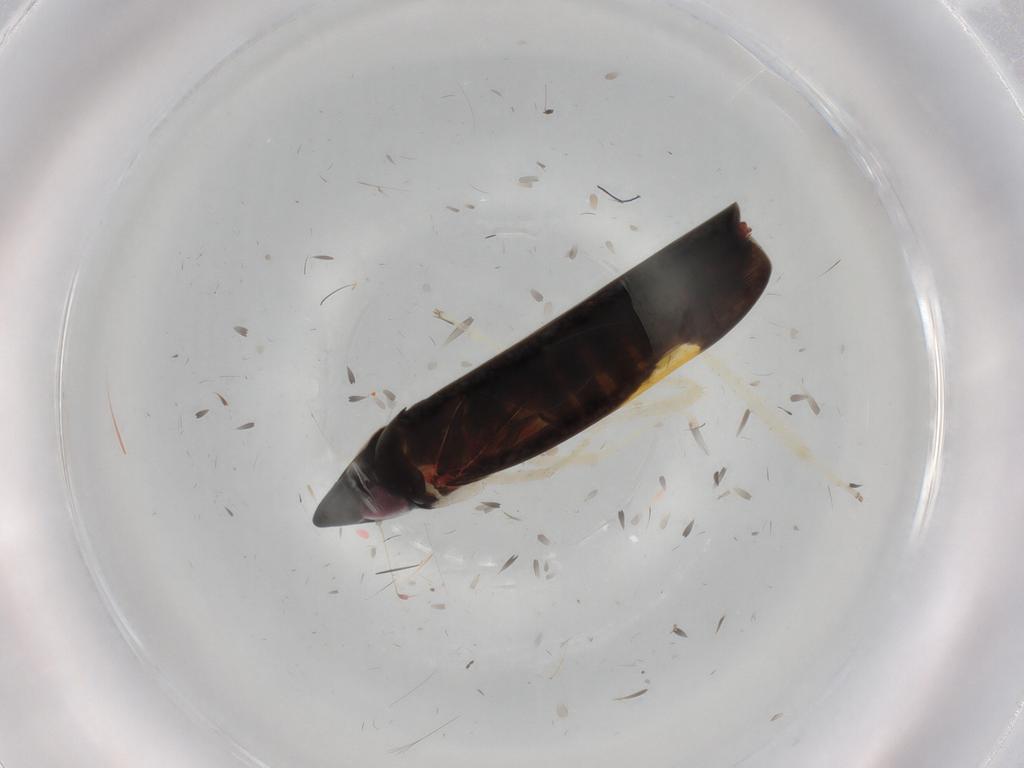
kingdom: Animalia
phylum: Arthropoda
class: Insecta
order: Hemiptera
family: Cicadellidae
